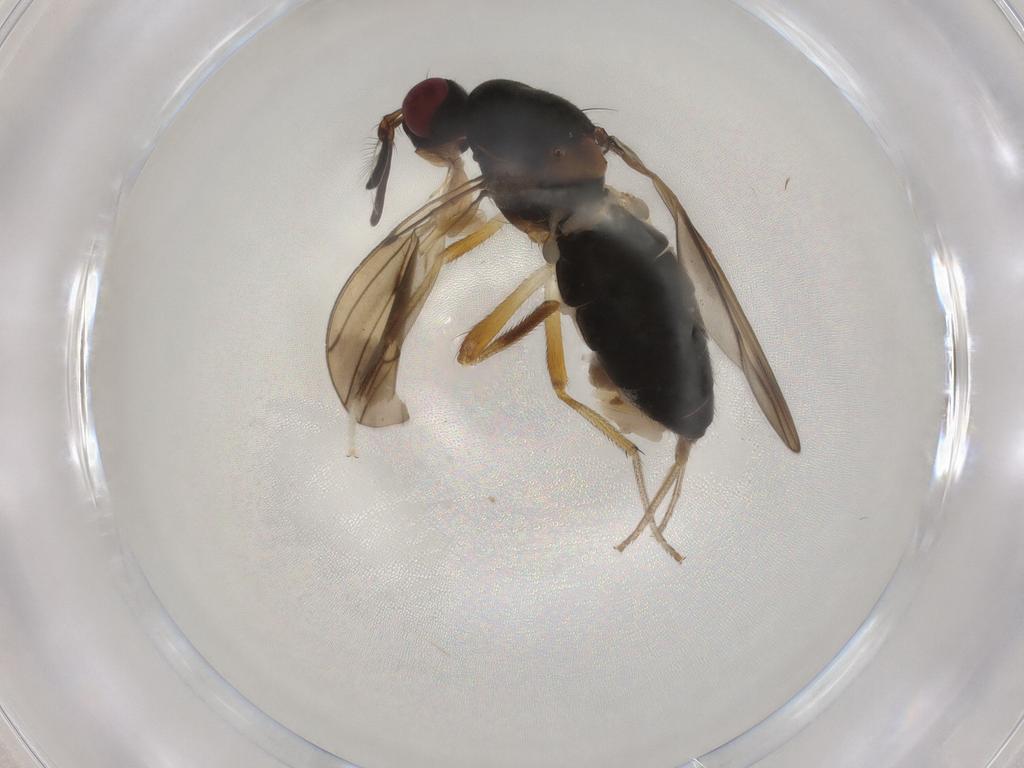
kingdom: Animalia
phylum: Arthropoda
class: Insecta
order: Diptera
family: Lauxaniidae
